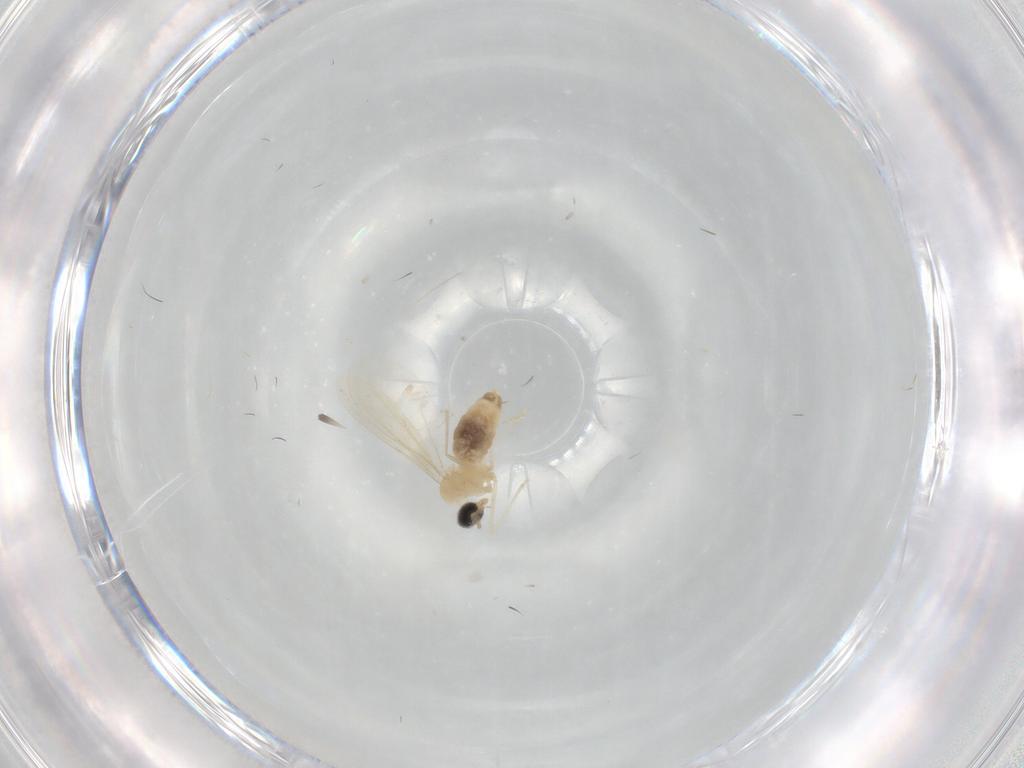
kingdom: Animalia
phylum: Arthropoda
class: Insecta
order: Diptera
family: Cecidomyiidae
